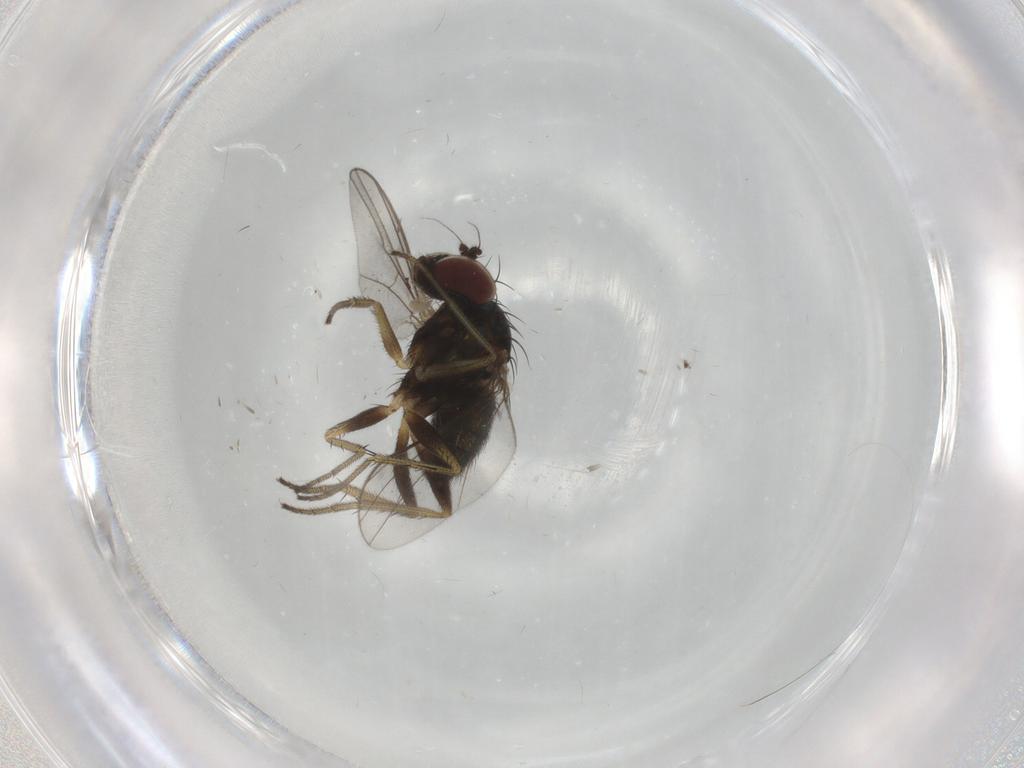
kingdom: Animalia
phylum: Arthropoda
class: Insecta
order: Diptera
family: Dolichopodidae
